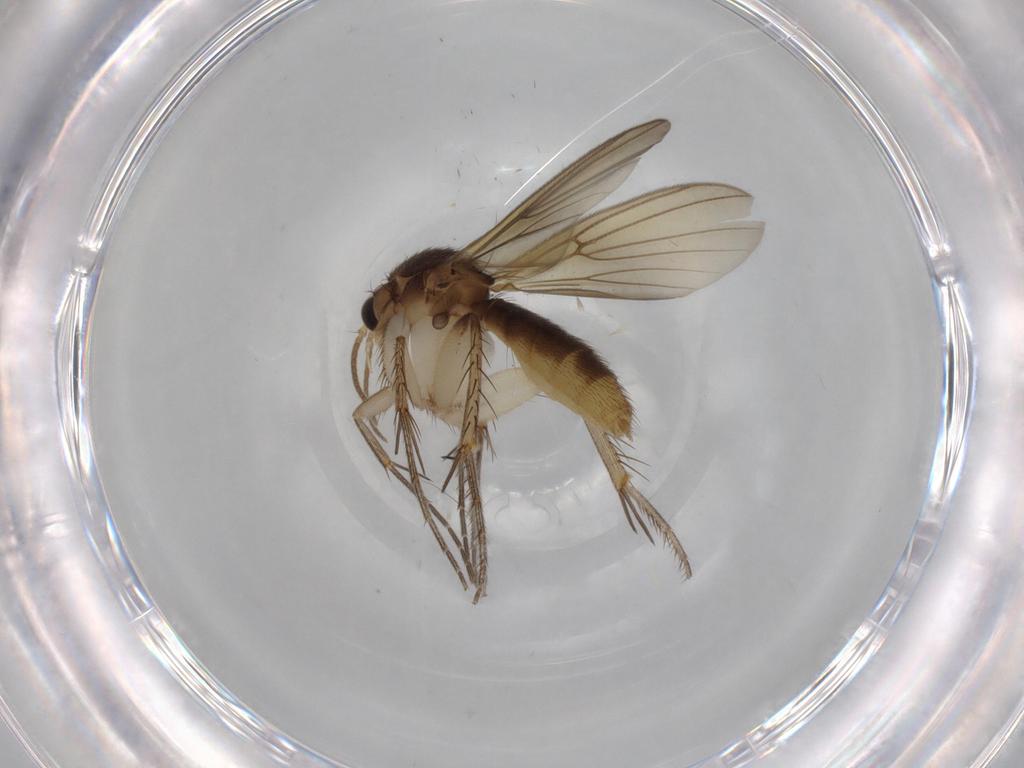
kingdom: Animalia
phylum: Arthropoda
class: Insecta
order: Diptera
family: Mycetophilidae
